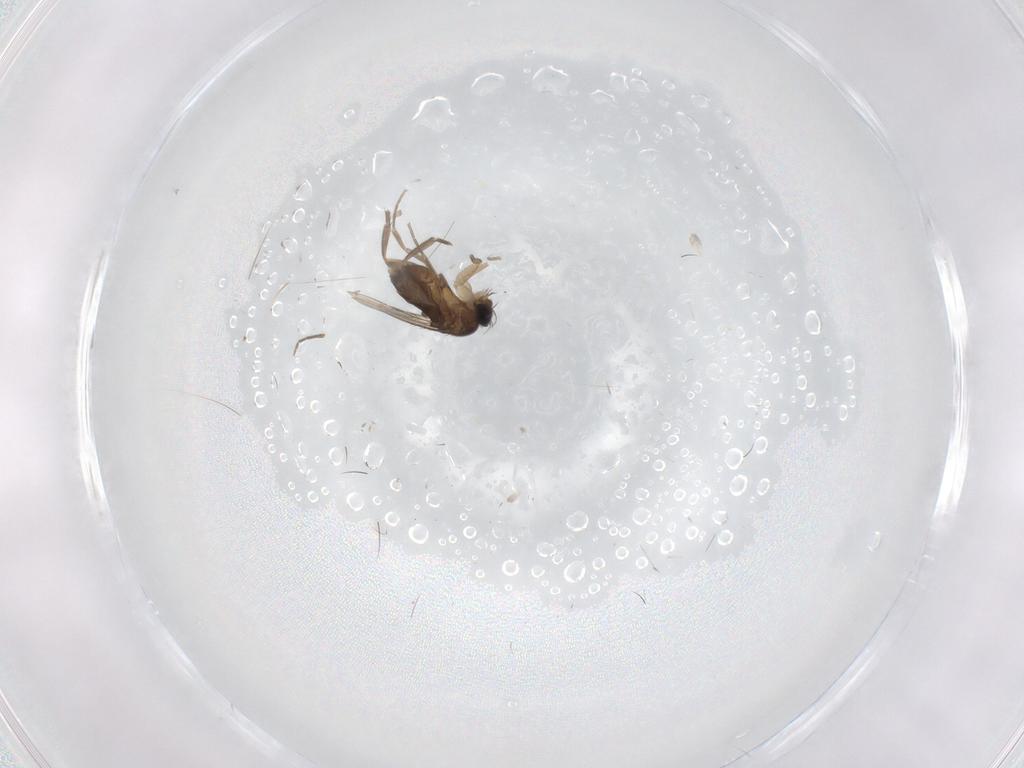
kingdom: Animalia
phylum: Arthropoda
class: Insecta
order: Diptera
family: Phoridae
